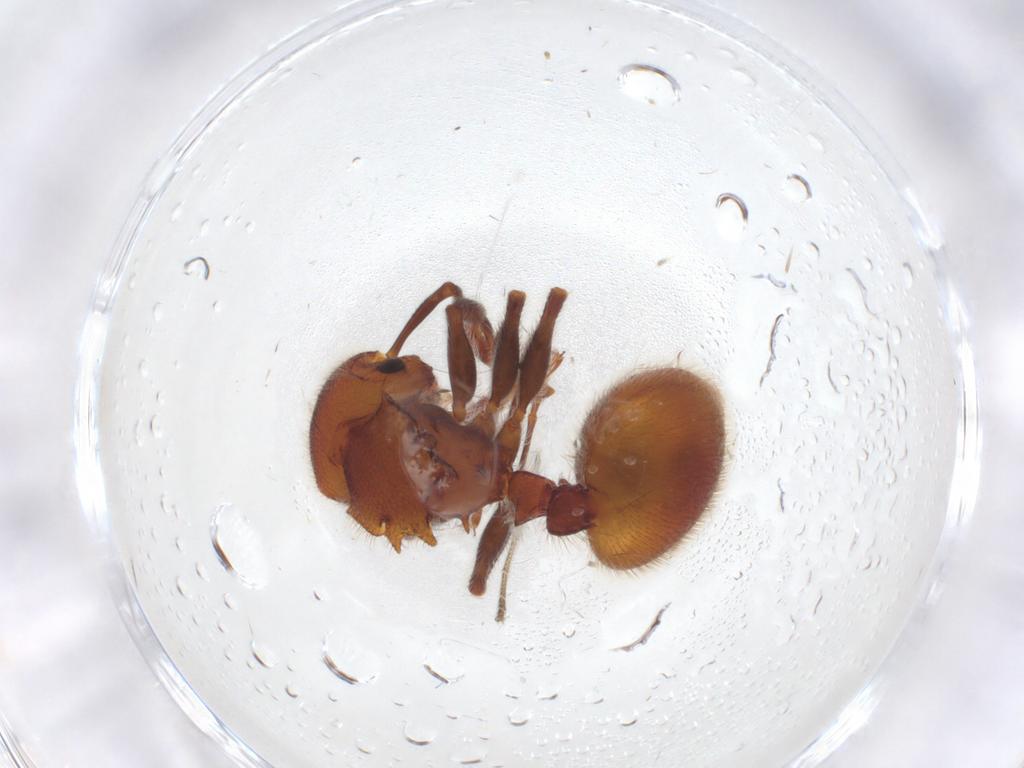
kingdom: Animalia
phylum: Arthropoda
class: Insecta
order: Hymenoptera
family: Formicidae
